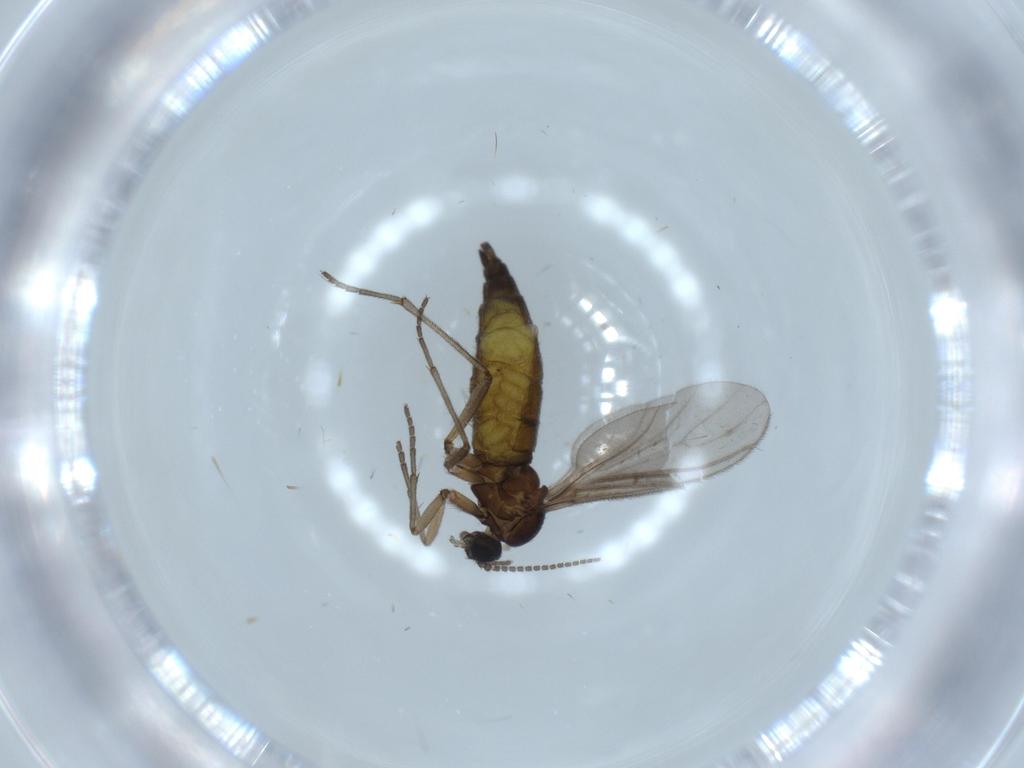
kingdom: Animalia
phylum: Arthropoda
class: Insecta
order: Diptera
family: Sciaridae
